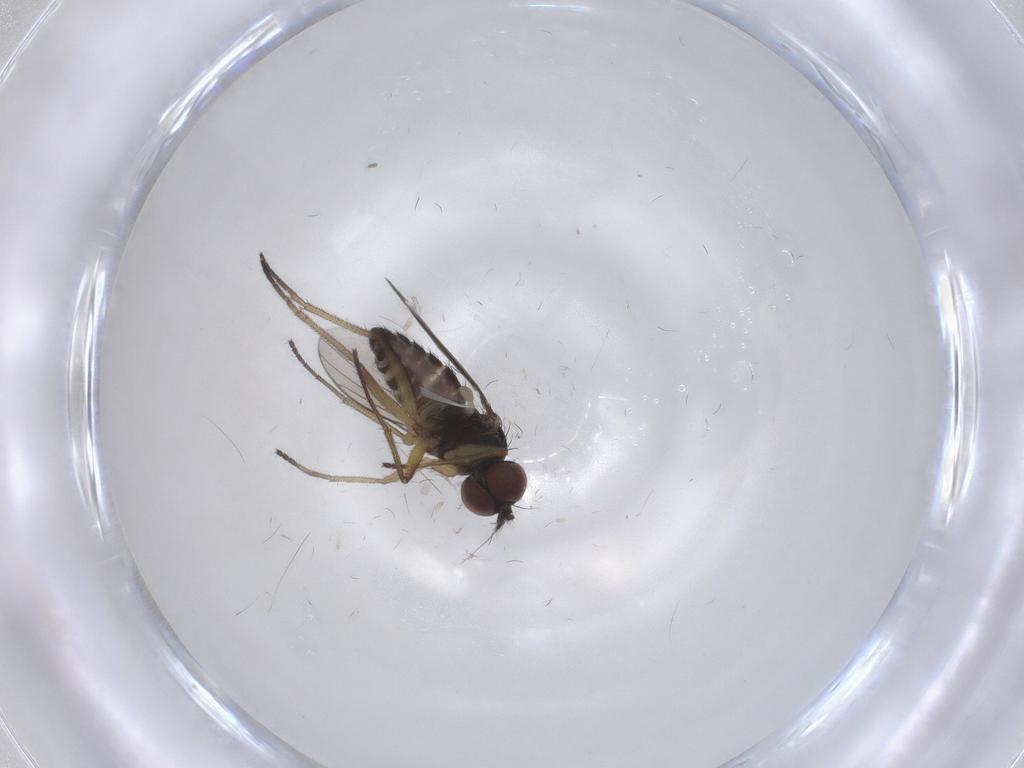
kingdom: Animalia
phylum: Arthropoda
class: Insecta
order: Diptera
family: Dolichopodidae
